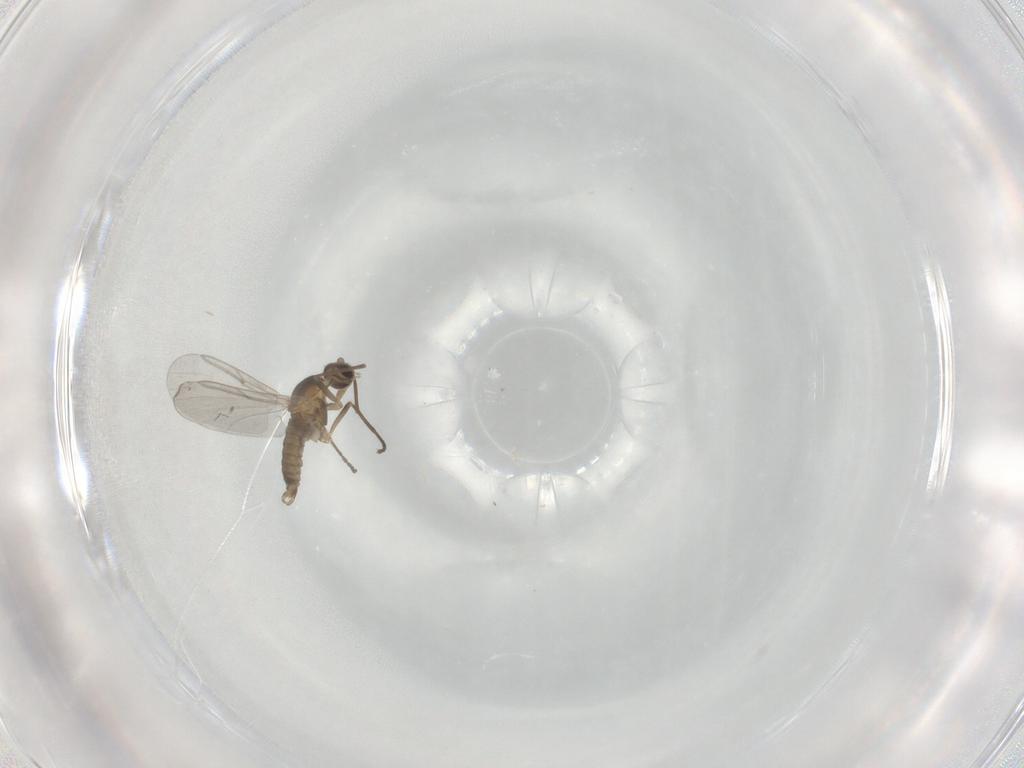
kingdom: Animalia
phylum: Arthropoda
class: Insecta
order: Diptera
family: Cecidomyiidae
